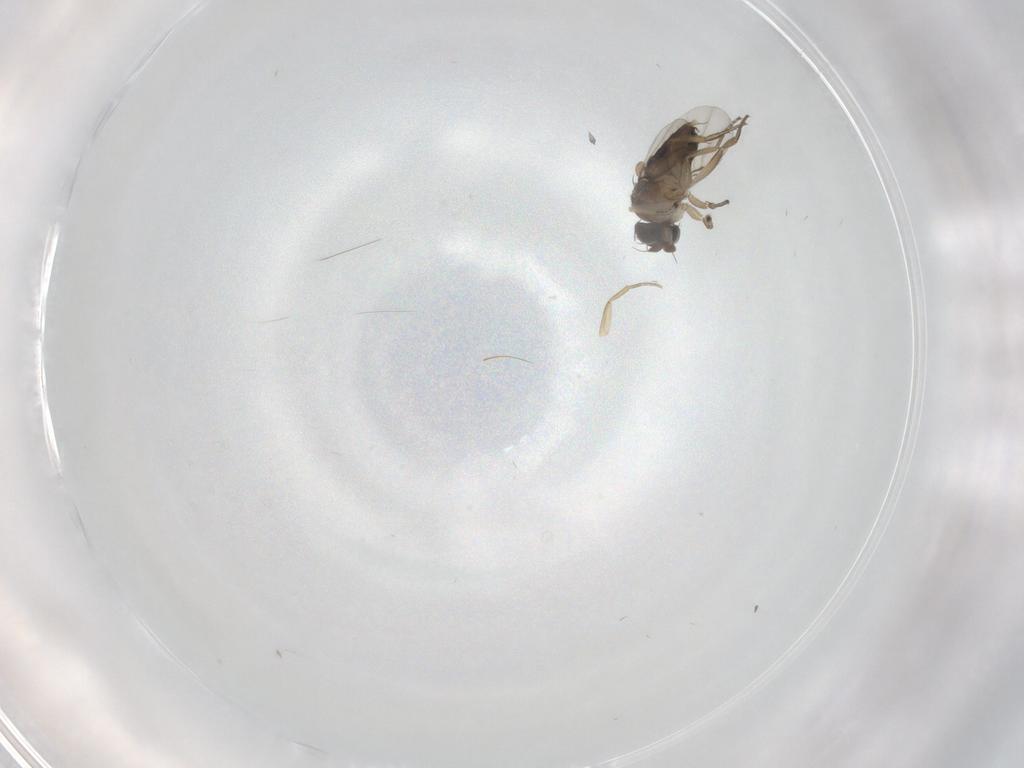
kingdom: Animalia
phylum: Arthropoda
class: Insecta
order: Diptera
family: Phoridae
